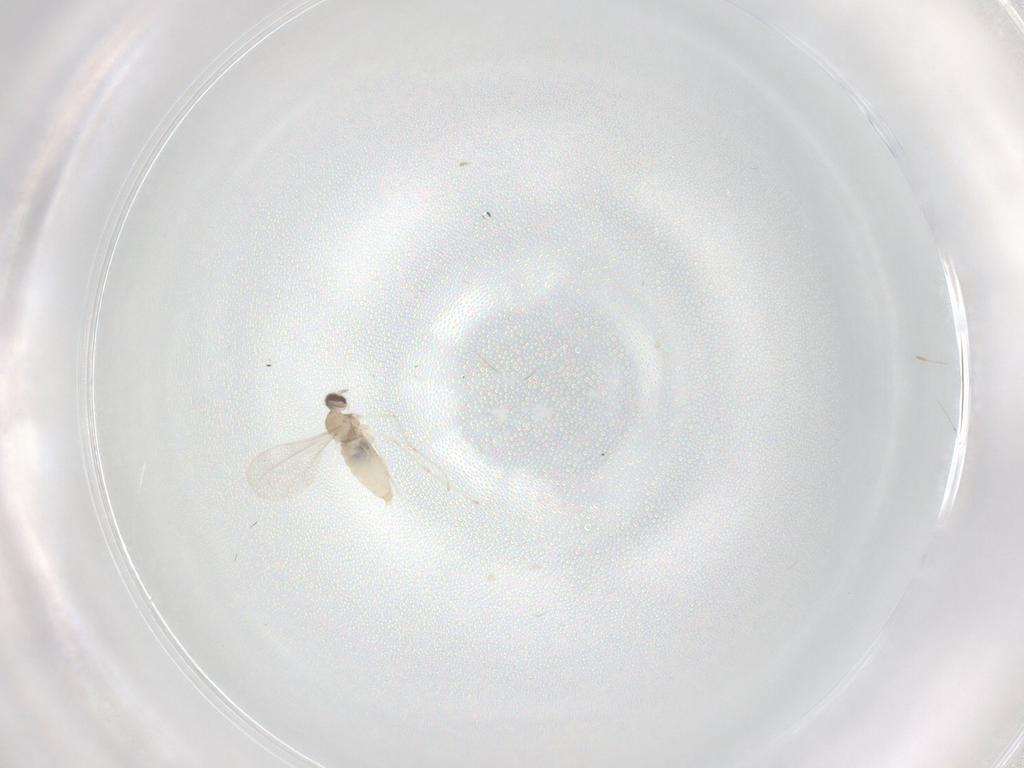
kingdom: Animalia
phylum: Arthropoda
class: Insecta
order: Diptera
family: Cecidomyiidae
